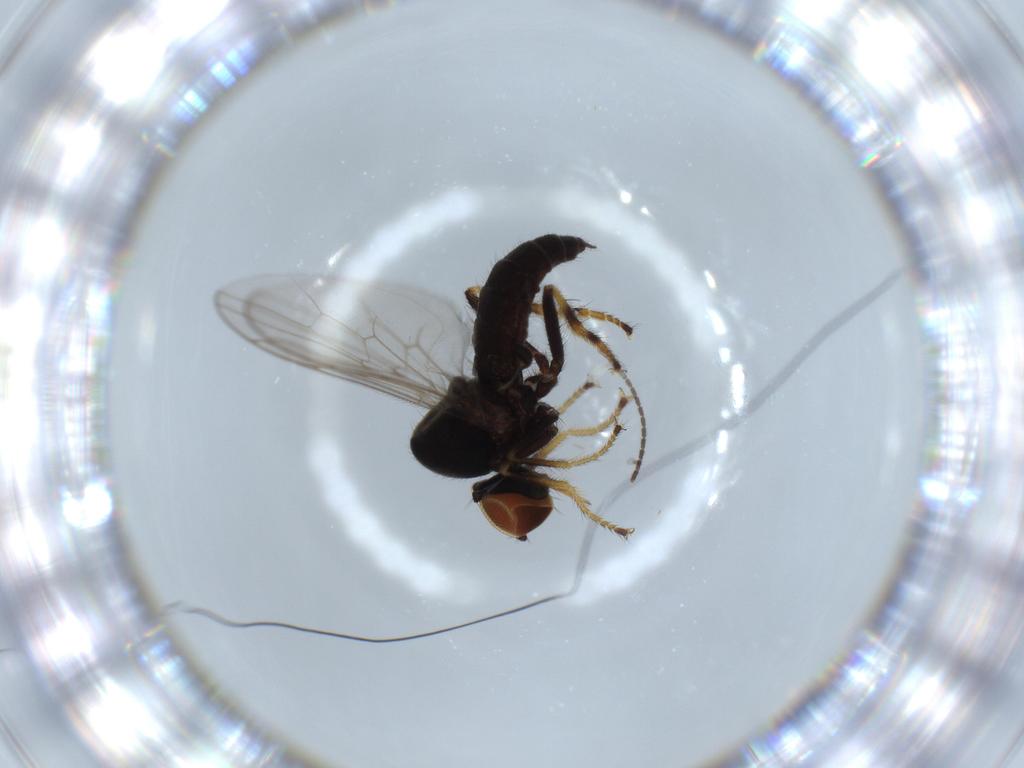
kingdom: Animalia
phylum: Arthropoda
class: Insecta
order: Diptera
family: Hybotidae
